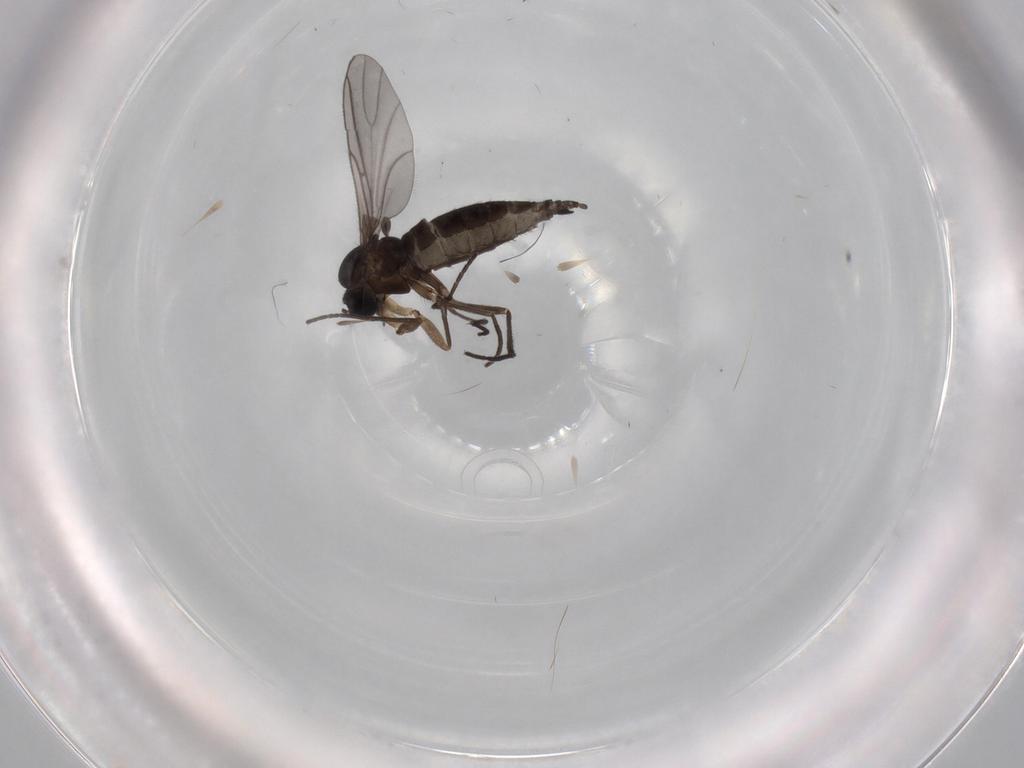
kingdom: Animalia
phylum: Arthropoda
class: Insecta
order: Diptera
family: Sciaridae
